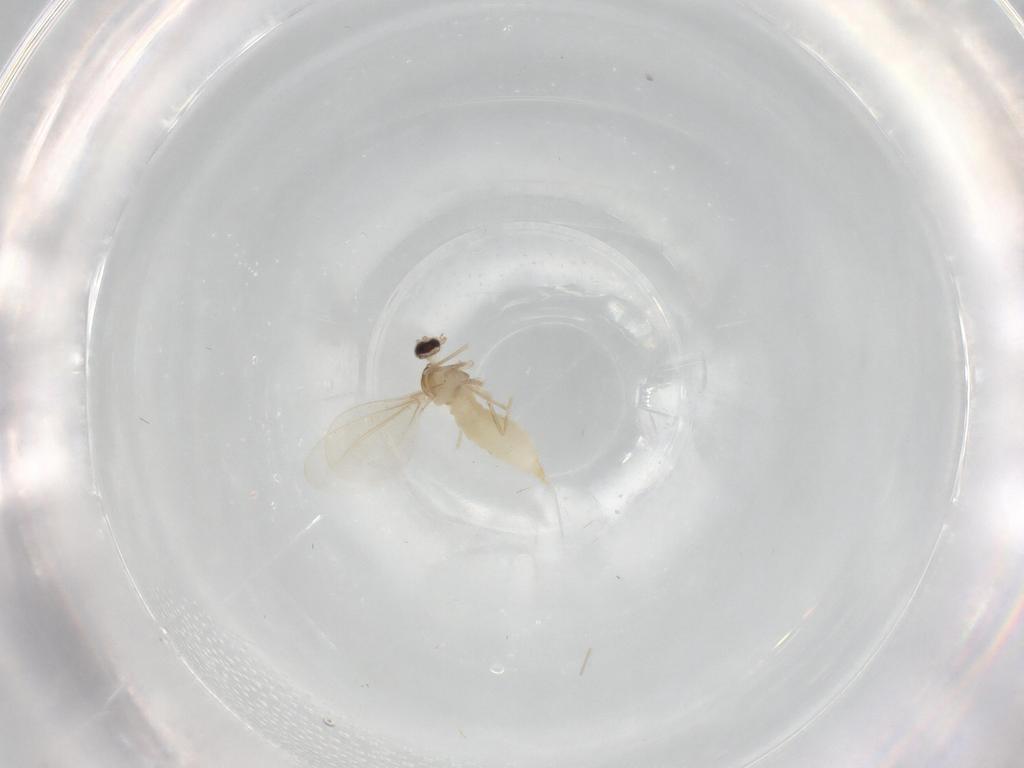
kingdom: Animalia
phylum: Arthropoda
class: Insecta
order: Diptera
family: Cecidomyiidae
